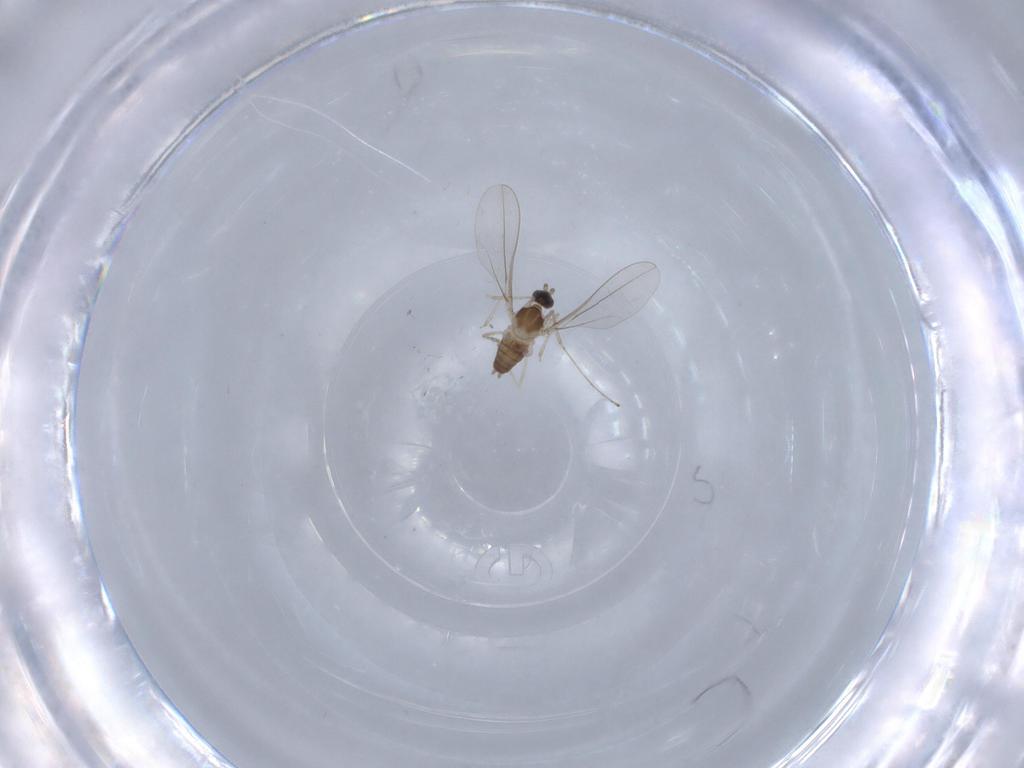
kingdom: Animalia
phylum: Arthropoda
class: Insecta
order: Diptera
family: Cecidomyiidae
